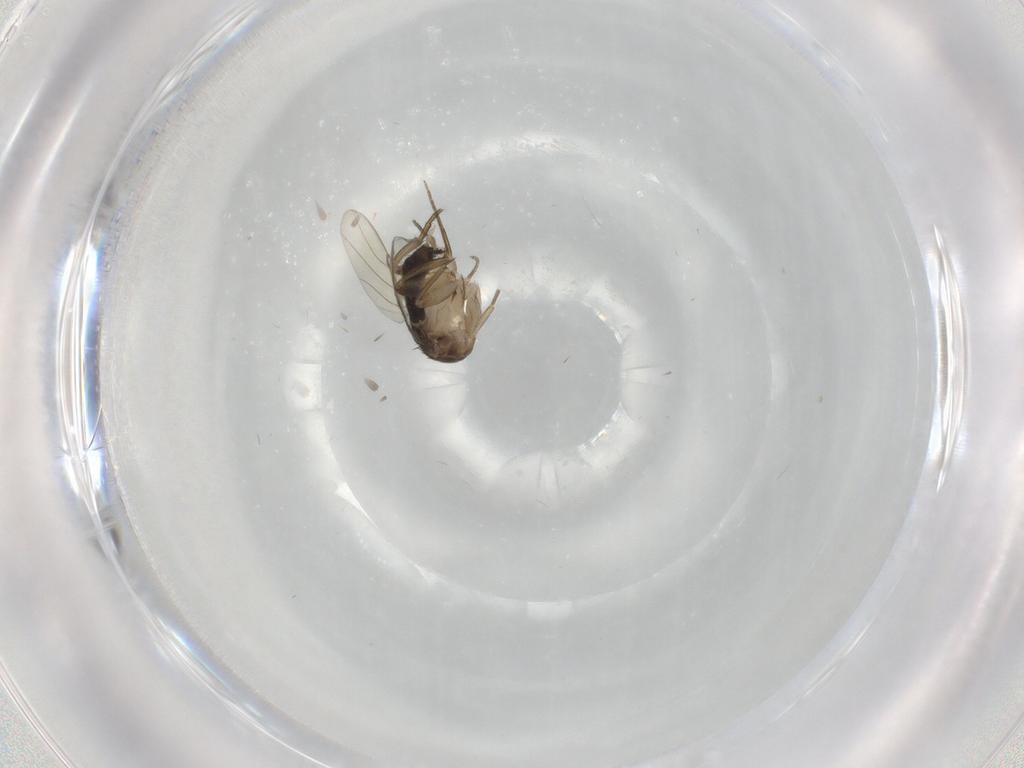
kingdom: Animalia
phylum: Arthropoda
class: Insecta
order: Diptera
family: Phoridae
